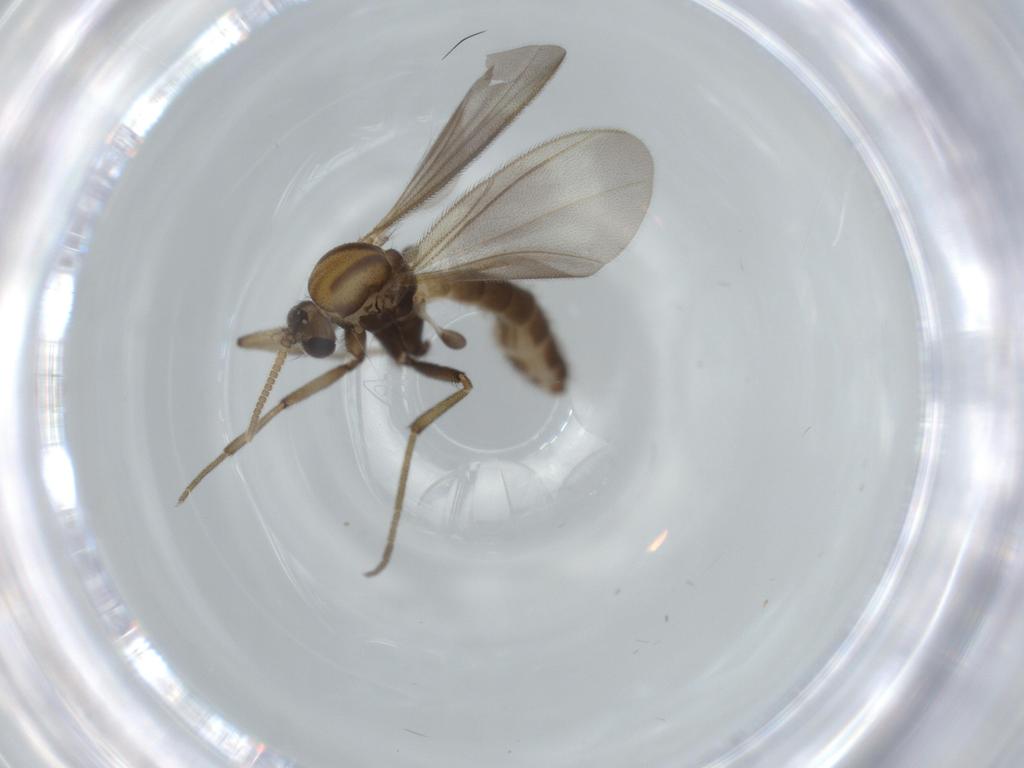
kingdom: Animalia
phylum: Arthropoda
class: Insecta
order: Diptera
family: Mycetophilidae
